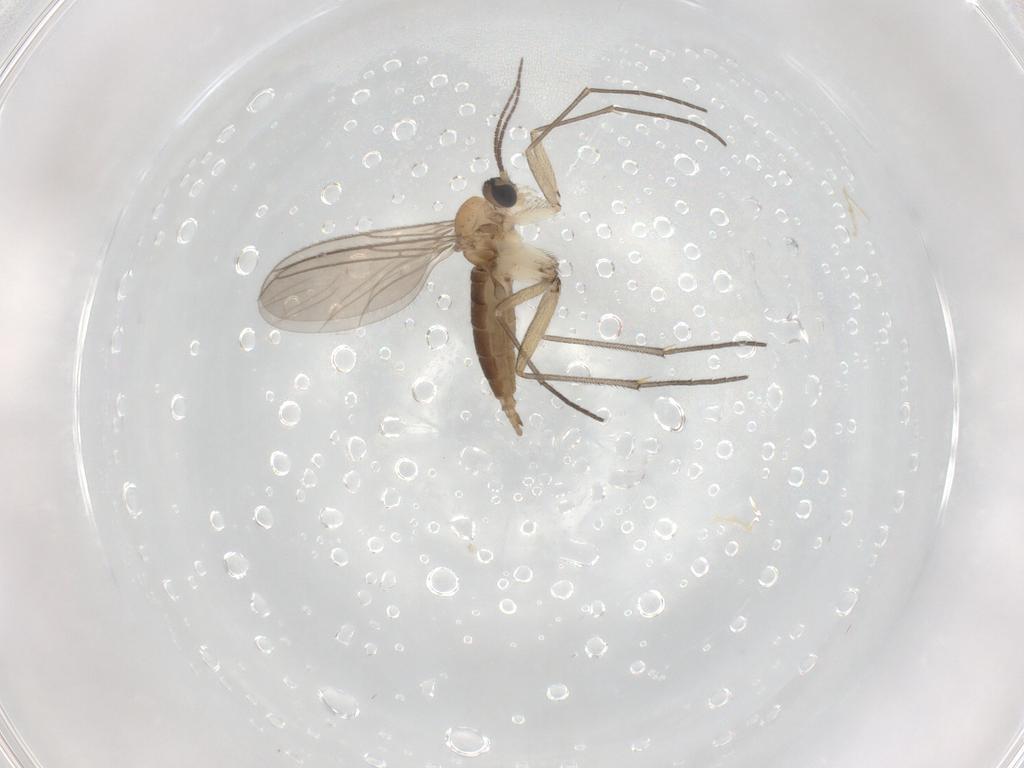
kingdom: Animalia
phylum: Arthropoda
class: Insecta
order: Diptera
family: Sciaridae
